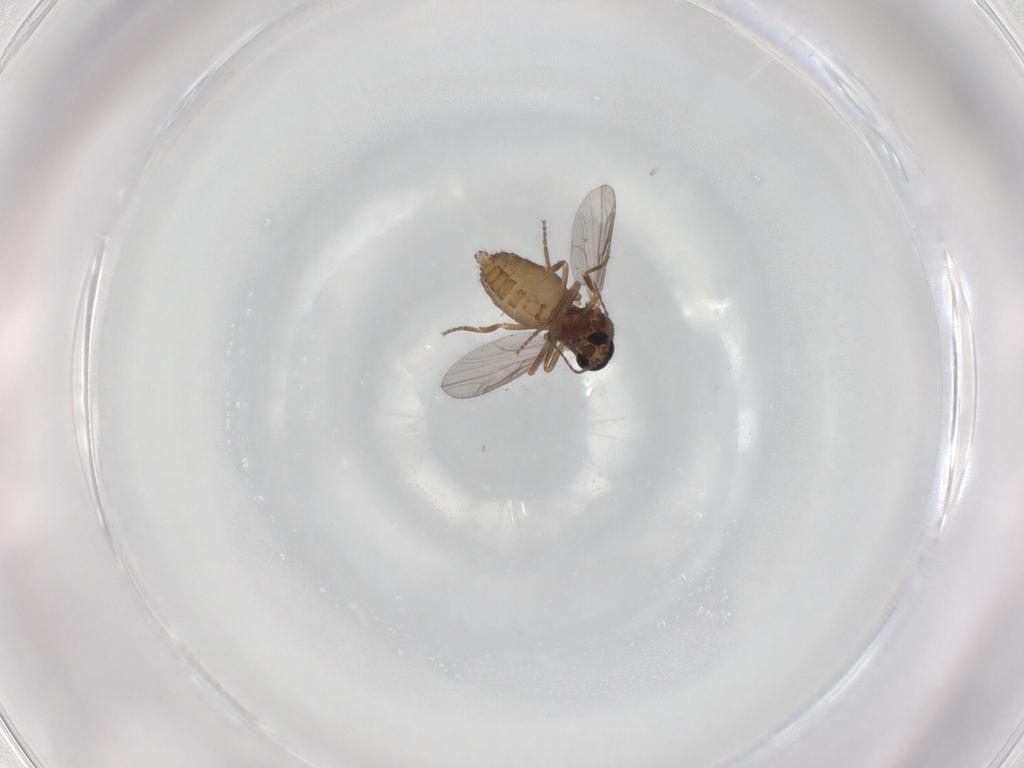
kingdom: Animalia
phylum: Arthropoda
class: Insecta
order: Diptera
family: Ceratopogonidae
